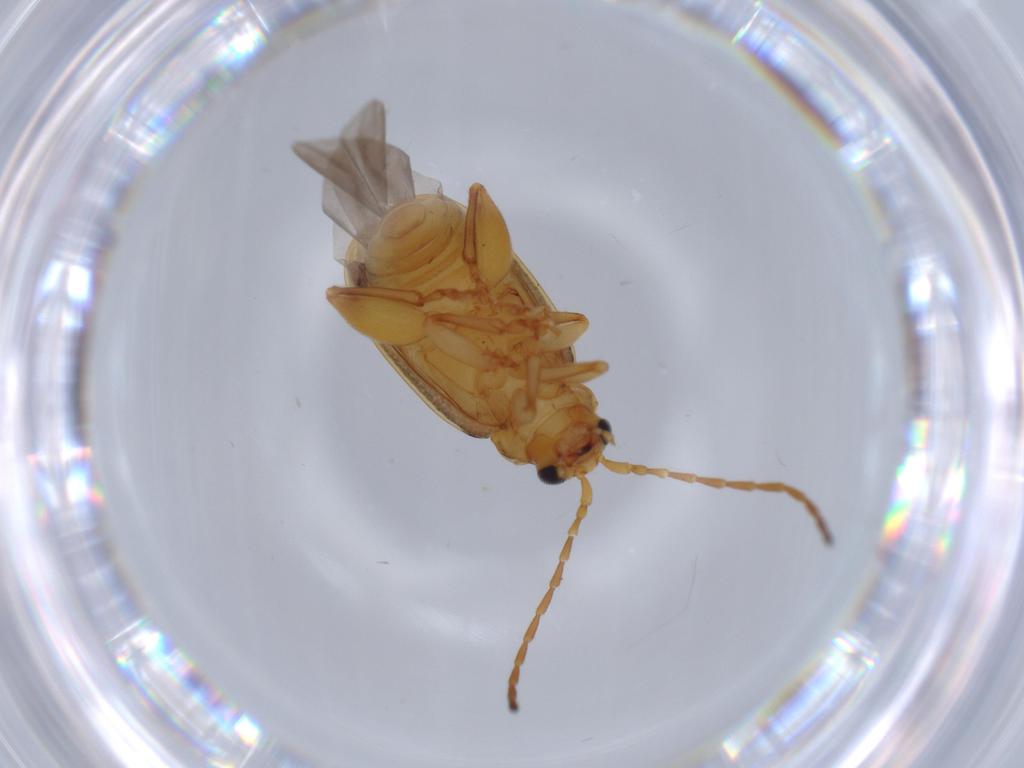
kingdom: Animalia
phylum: Arthropoda
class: Insecta
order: Coleoptera
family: Chrysomelidae
